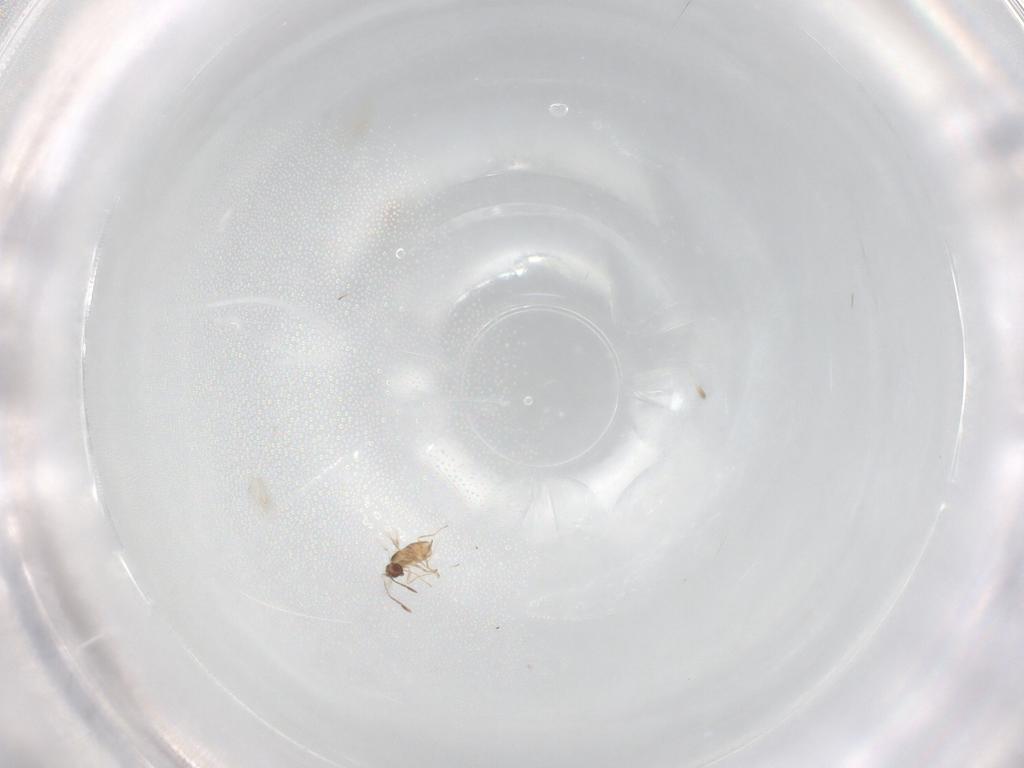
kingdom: Animalia
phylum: Arthropoda
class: Insecta
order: Hymenoptera
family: Mymaridae
